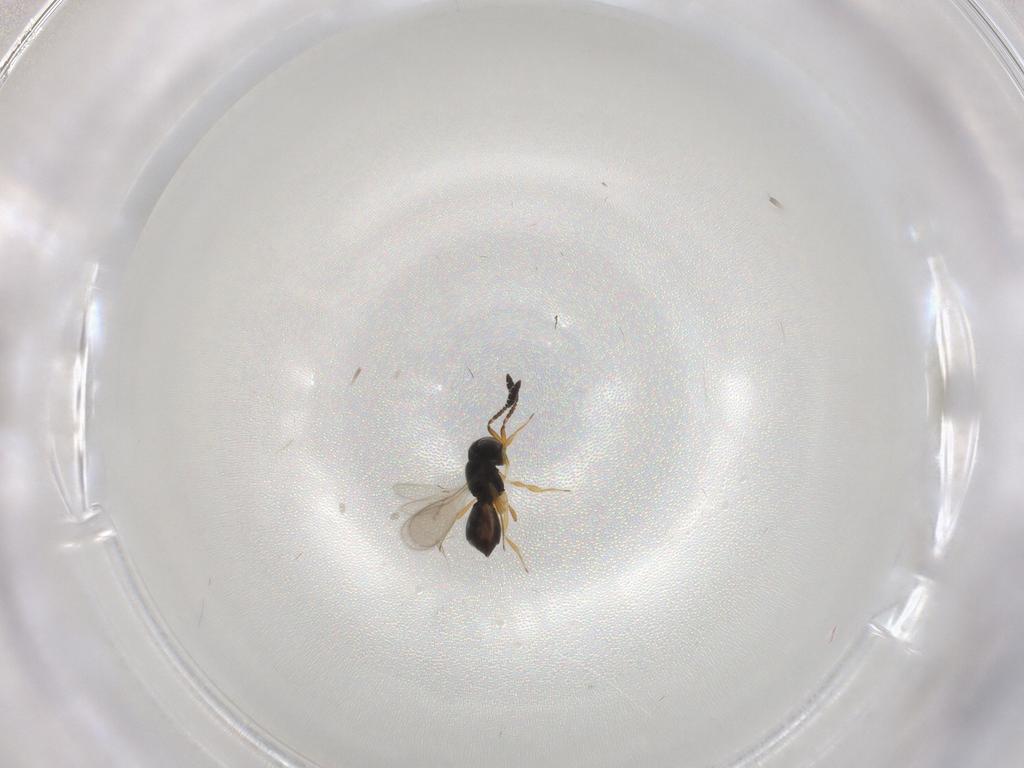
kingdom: Animalia
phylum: Arthropoda
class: Insecta
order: Hymenoptera
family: Scelionidae
